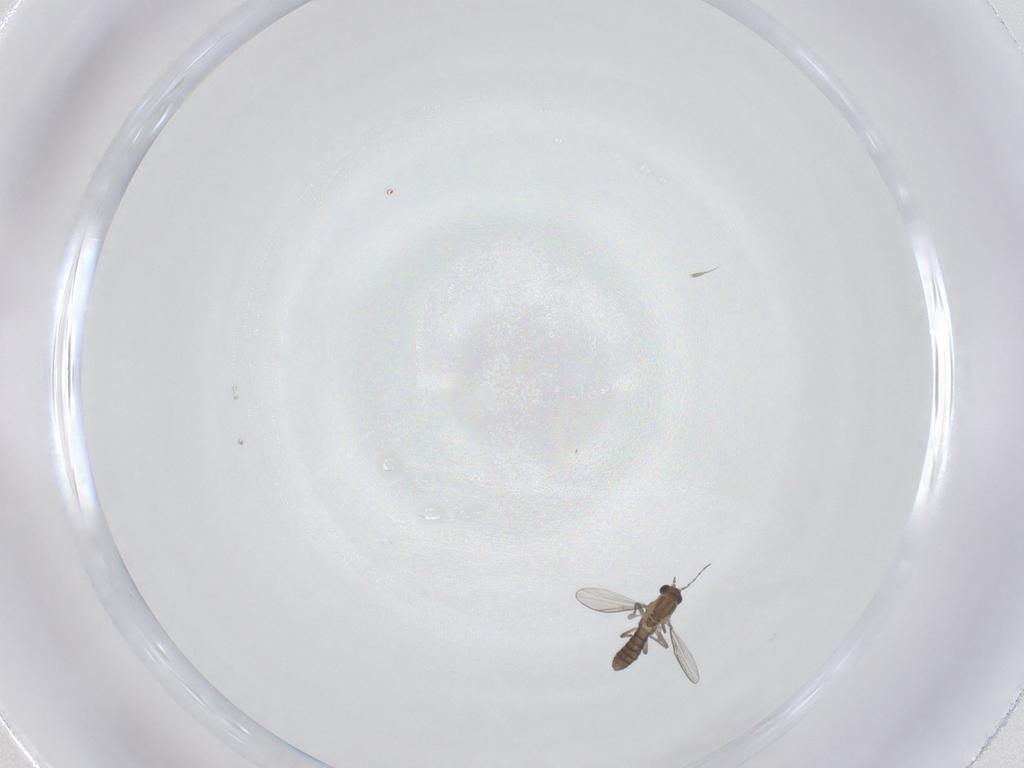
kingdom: Animalia
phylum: Arthropoda
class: Insecta
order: Diptera
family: Chironomidae
